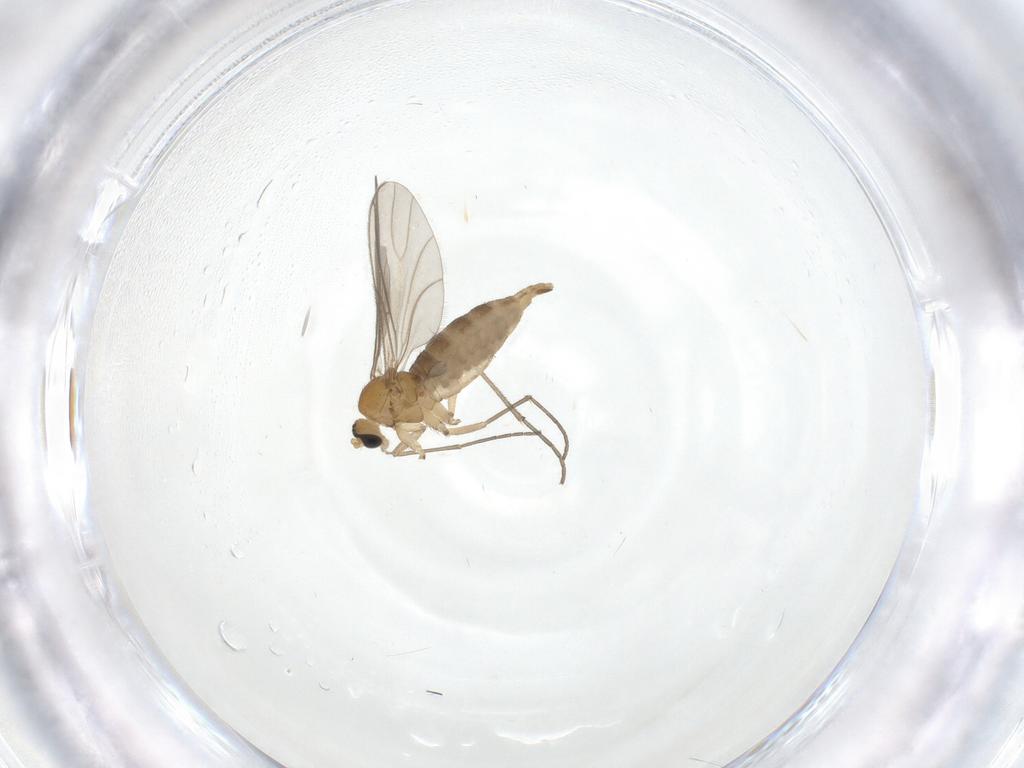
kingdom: Animalia
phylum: Arthropoda
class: Insecta
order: Diptera
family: Sciaridae
